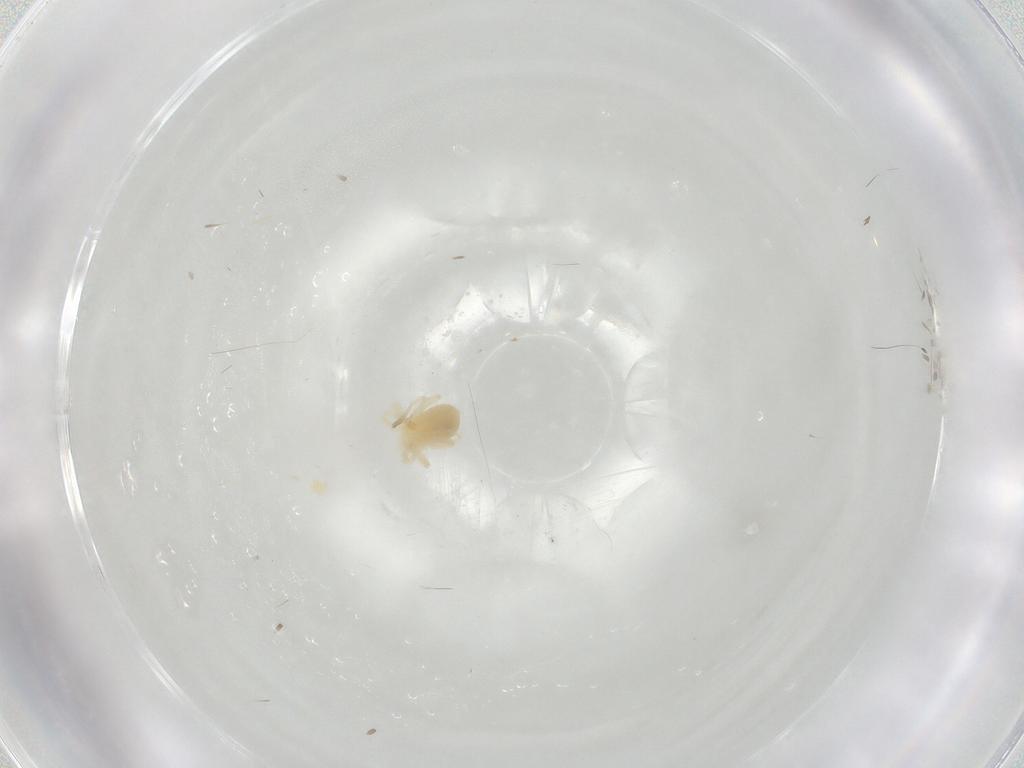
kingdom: Animalia
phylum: Arthropoda
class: Arachnida
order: Trombidiformes
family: Anystidae
